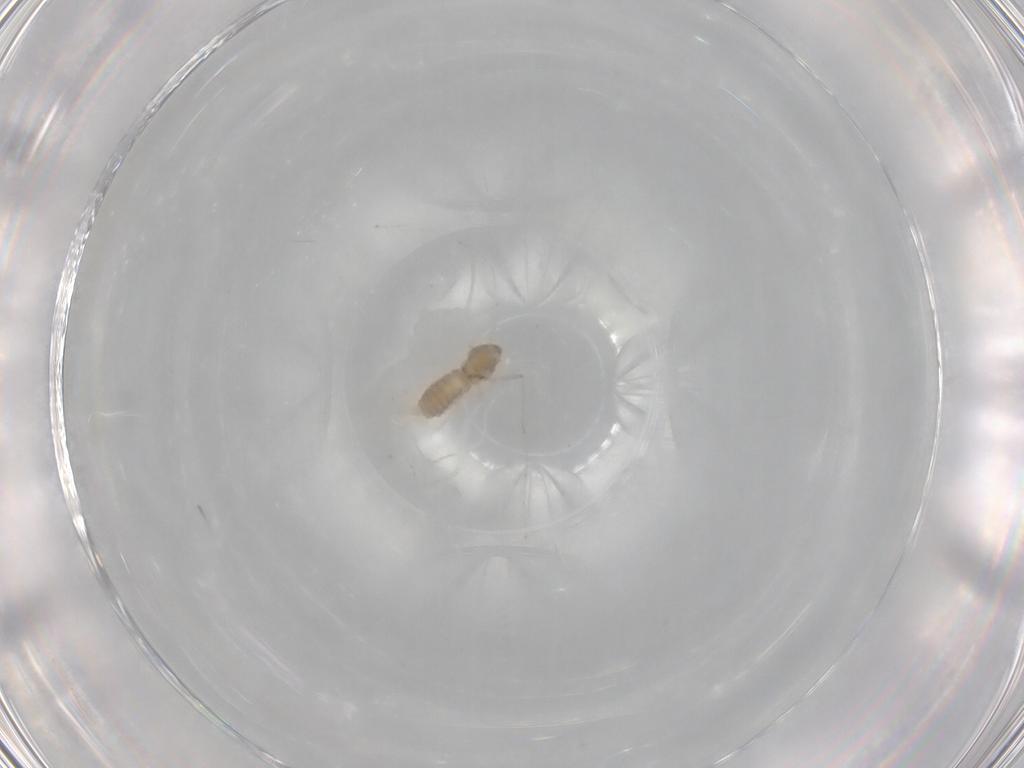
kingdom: Animalia
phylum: Arthropoda
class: Insecta
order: Diptera
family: Cecidomyiidae
